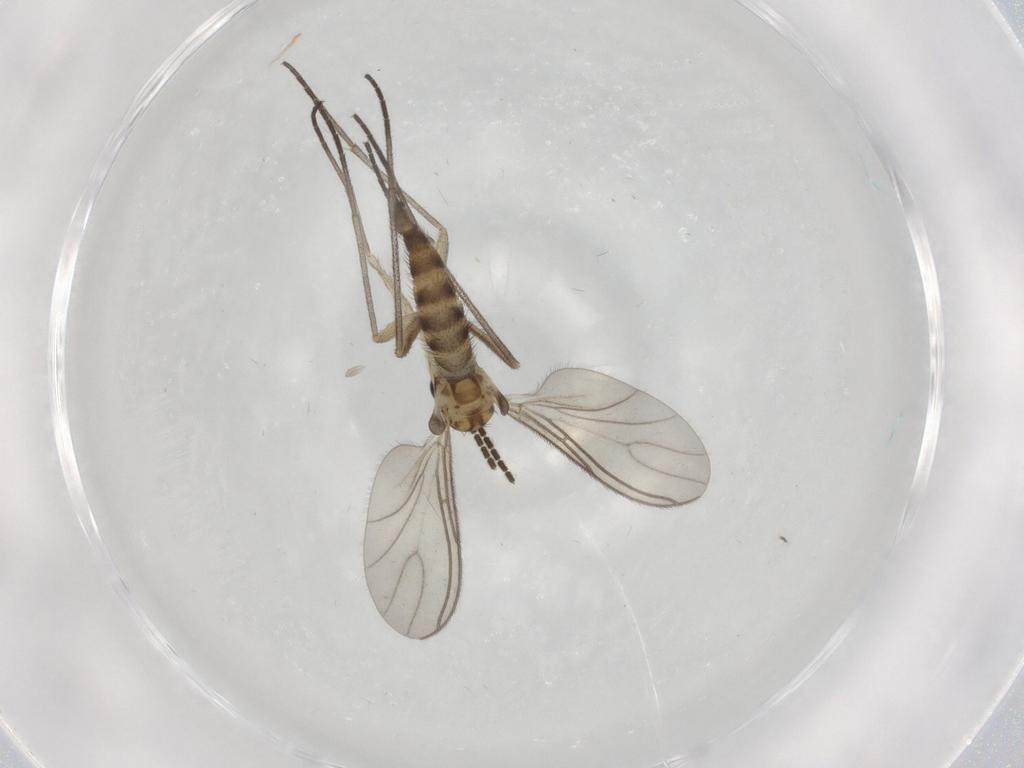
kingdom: Animalia
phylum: Arthropoda
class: Insecta
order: Diptera
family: Sciaridae
